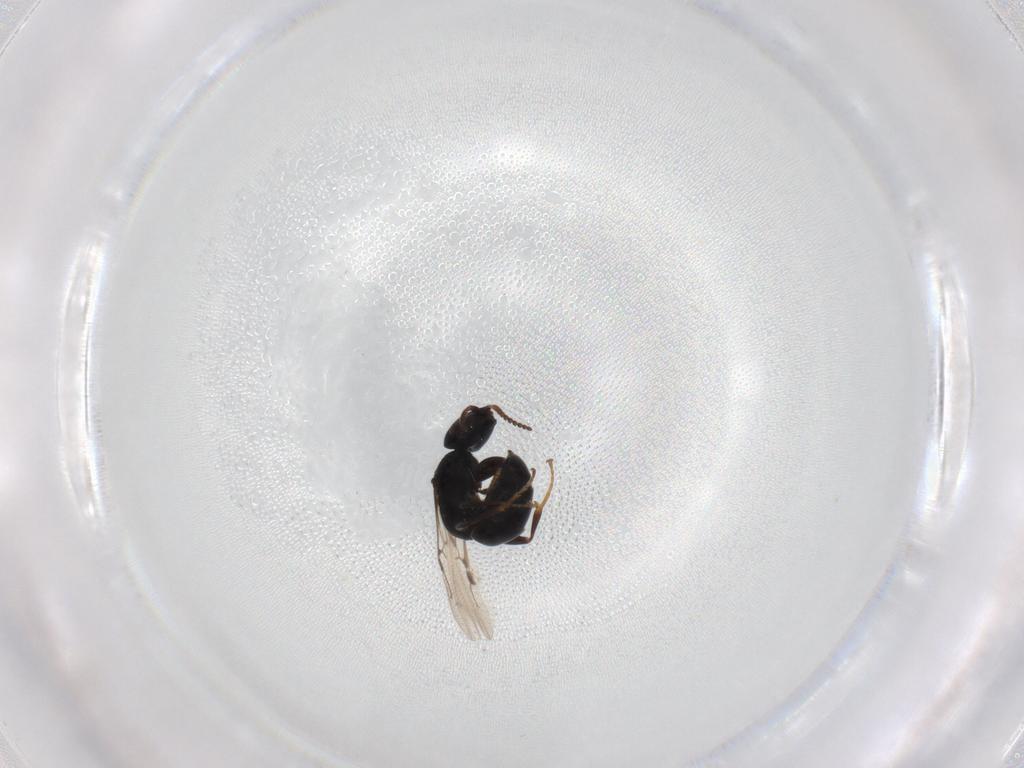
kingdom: Animalia
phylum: Arthropoda
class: Insecta
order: Hymenoptera
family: Bethylidae
